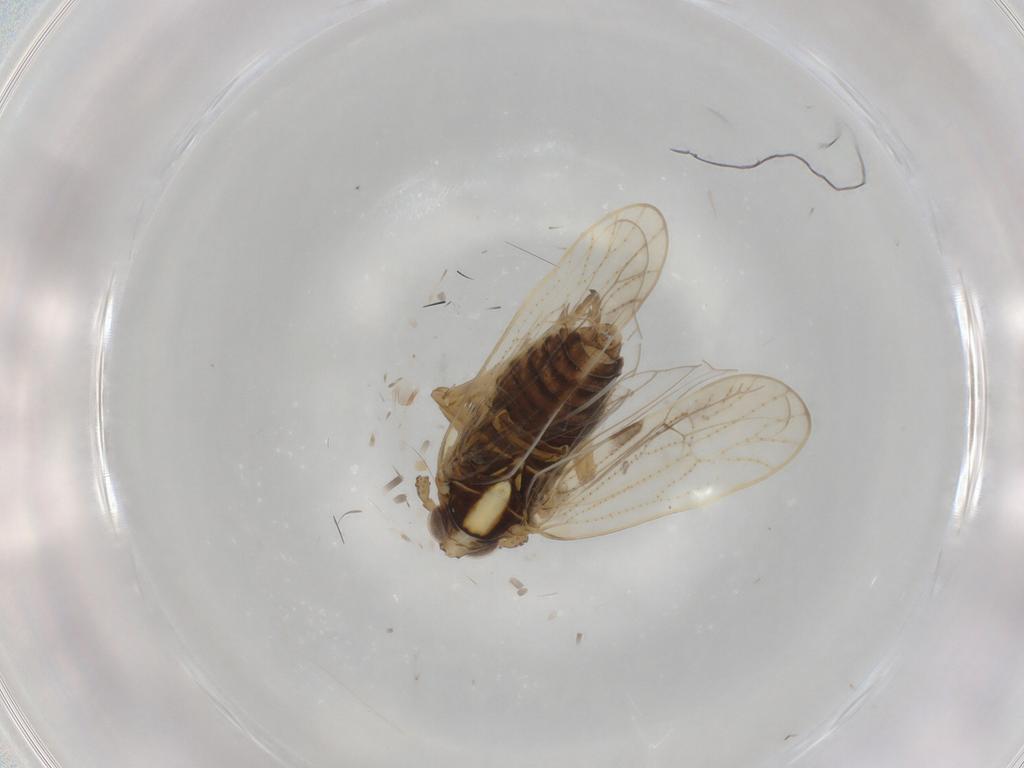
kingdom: Animalia
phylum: Arthropoda
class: Insecta
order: Hemiptera
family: Delphacidae
